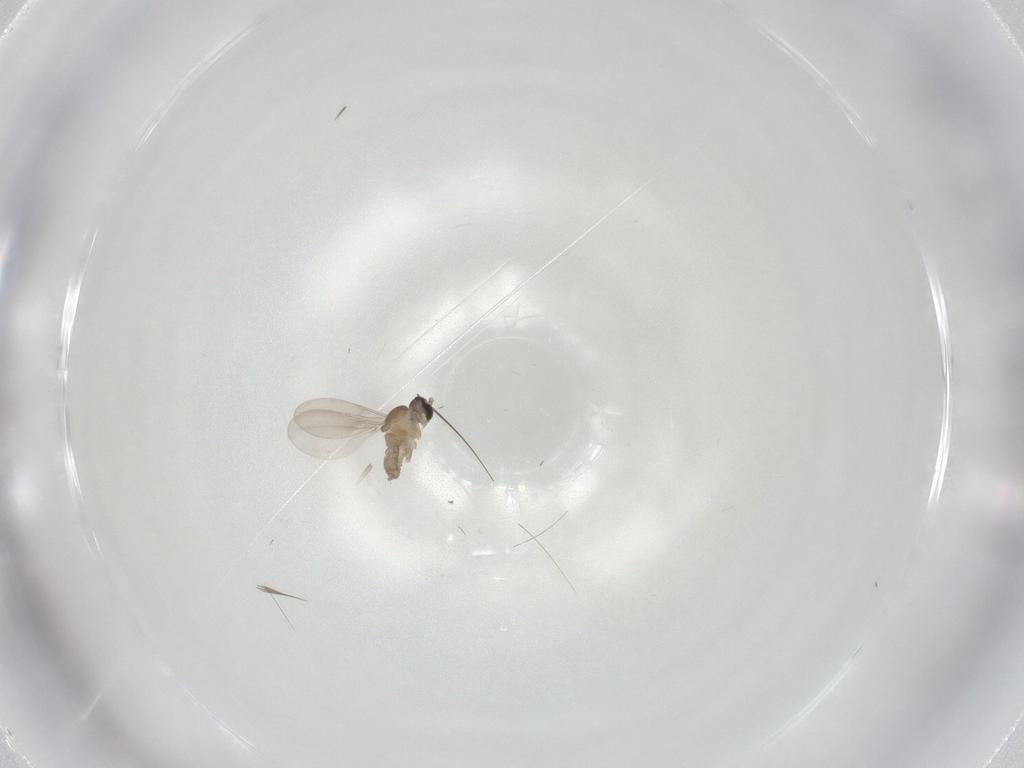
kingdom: Animalia
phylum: Arthropoda
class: Insecta
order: Diptera
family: Cecidomyiidae
